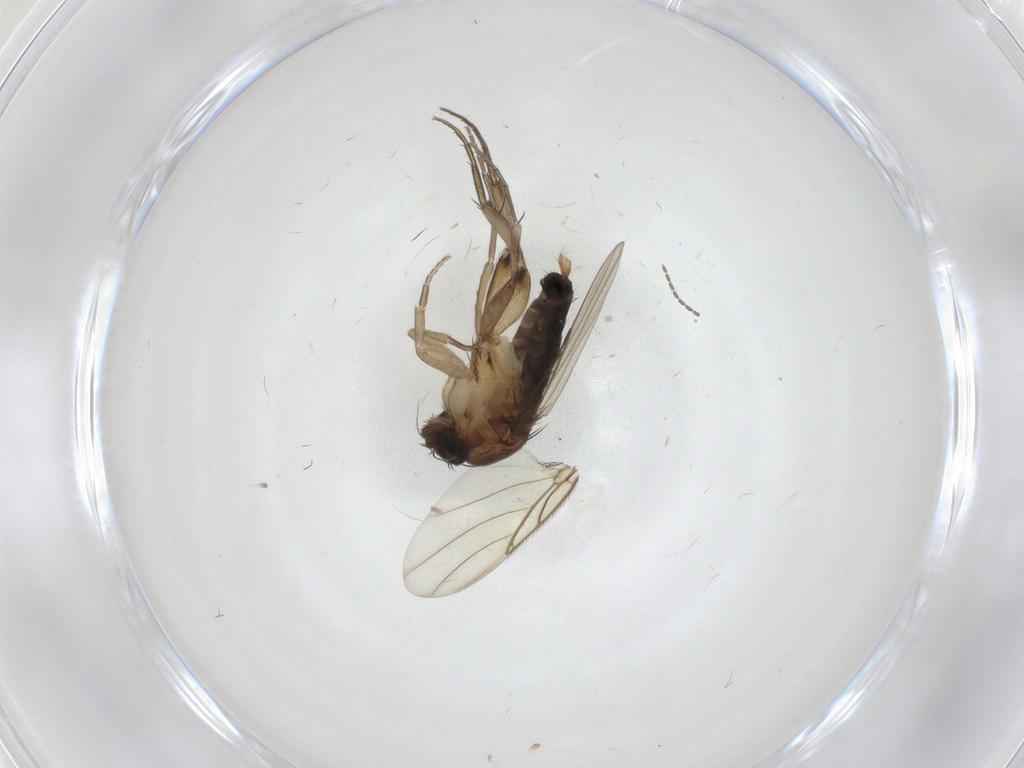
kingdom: Animalia
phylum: Arthropoda
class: Insecta
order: Diptera
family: Phoridae
